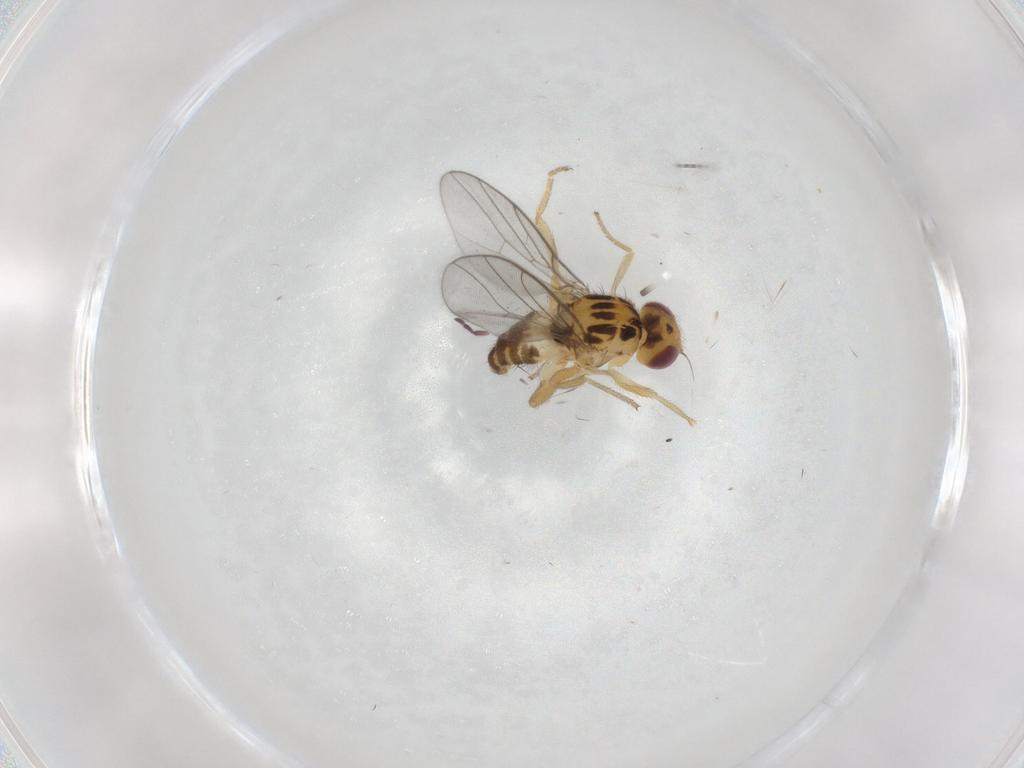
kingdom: Animalia
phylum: Arthropoda
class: Insecta
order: Diptera
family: Chloropidae
